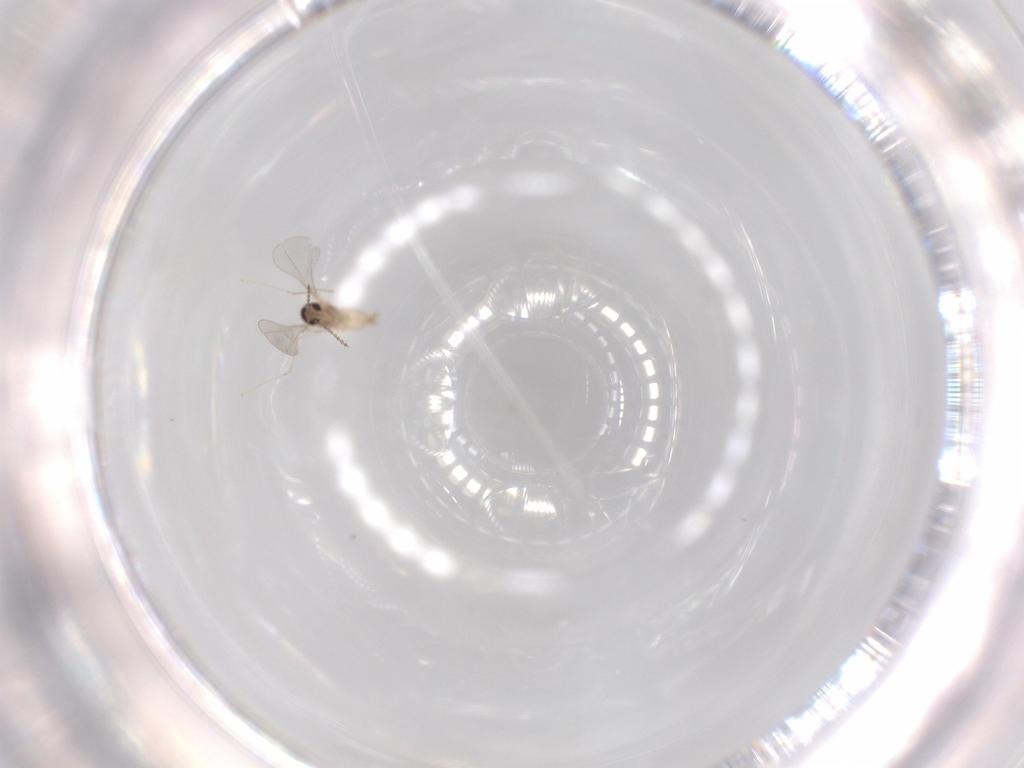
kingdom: Animalia
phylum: Arthropoda
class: Insecta
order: Diptera
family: Cecidomyiidae
